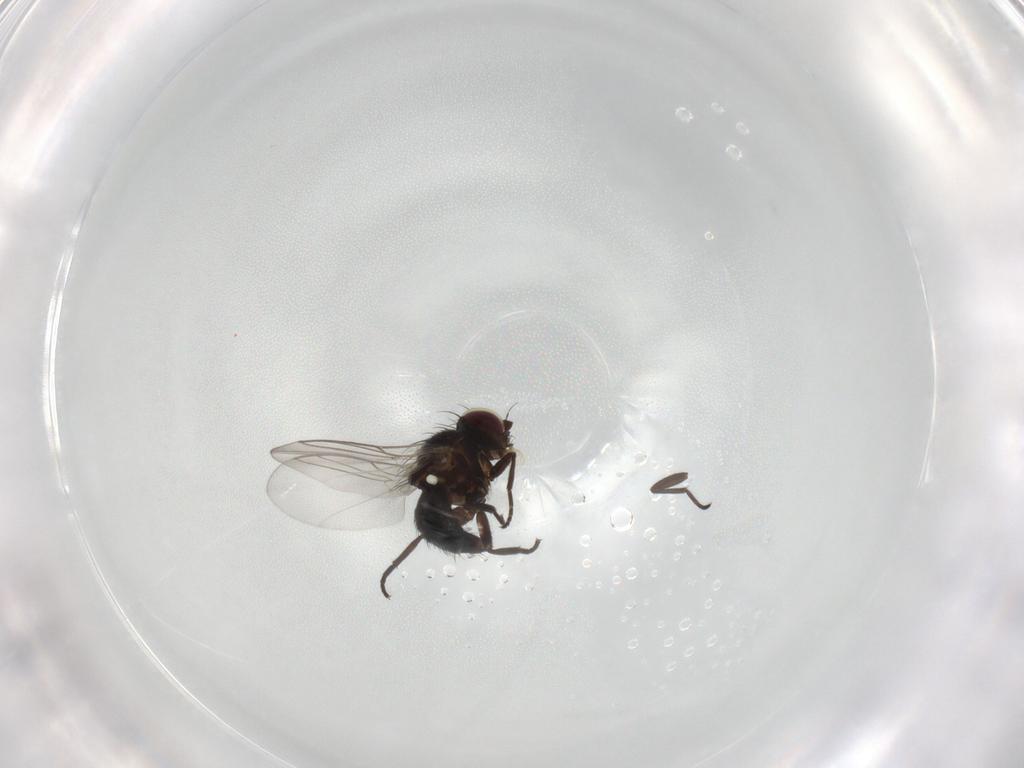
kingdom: Animalia
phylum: Arthropoda
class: Insecta
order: Diptera
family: Agromyzidae
